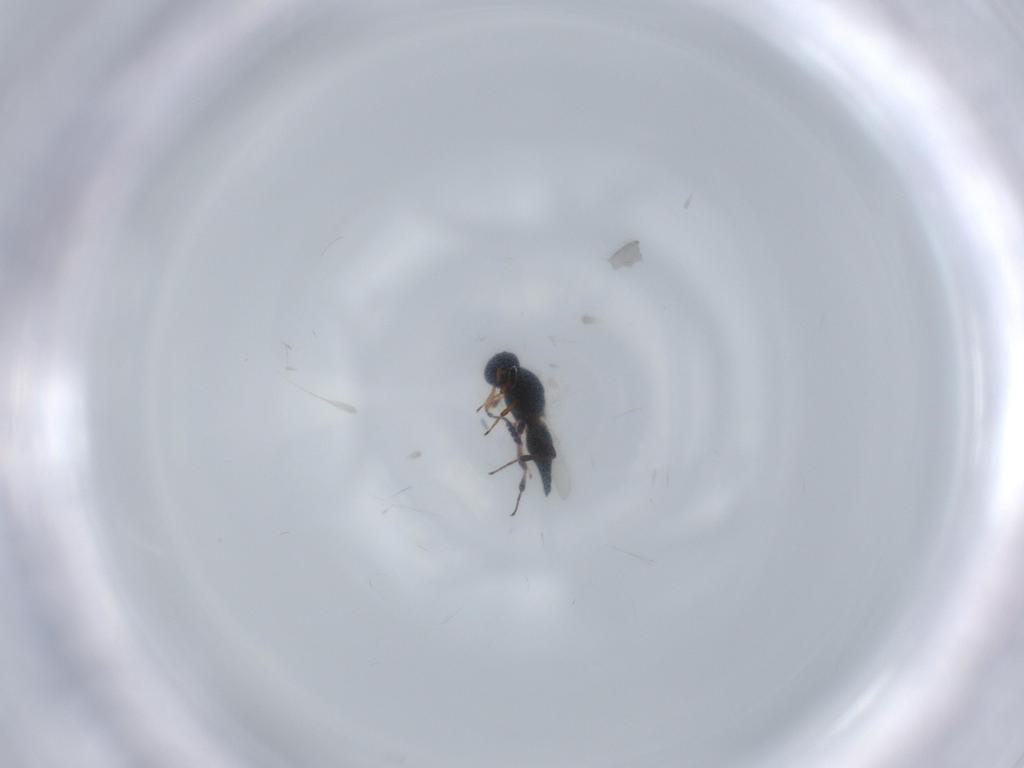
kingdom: Animalia
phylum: Arthropoda
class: Insecta
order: Hymenoptera
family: Platygastridae
